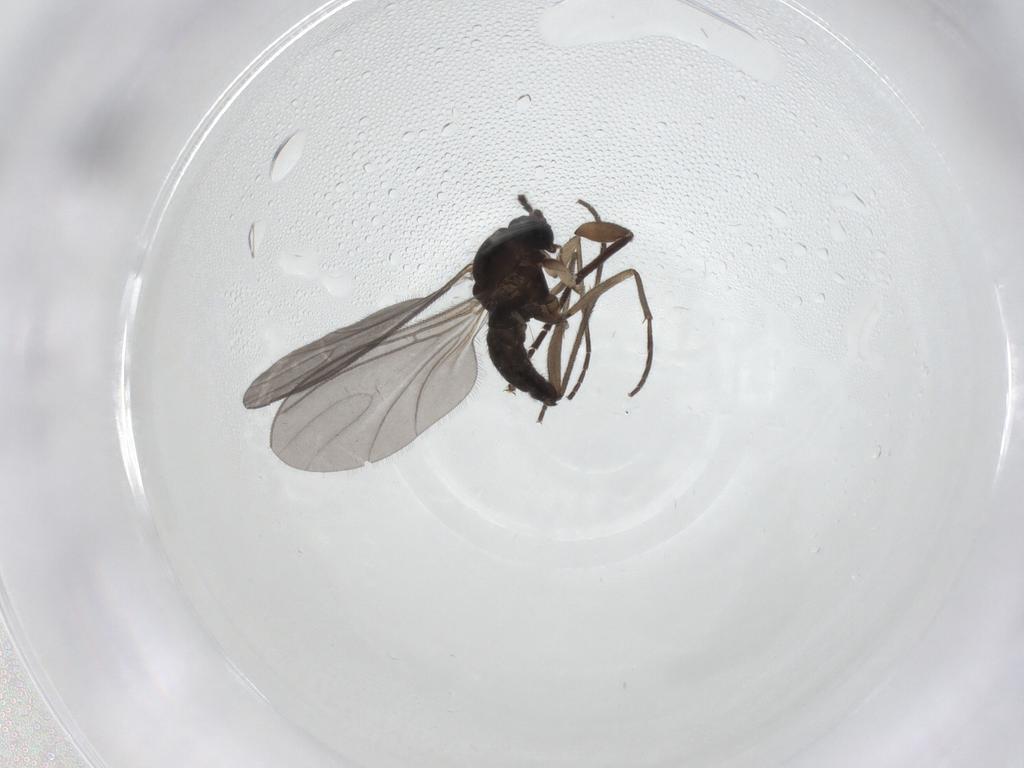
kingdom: Animalia
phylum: Arthropoda
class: Insecta
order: Diptera
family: Sciaridae
